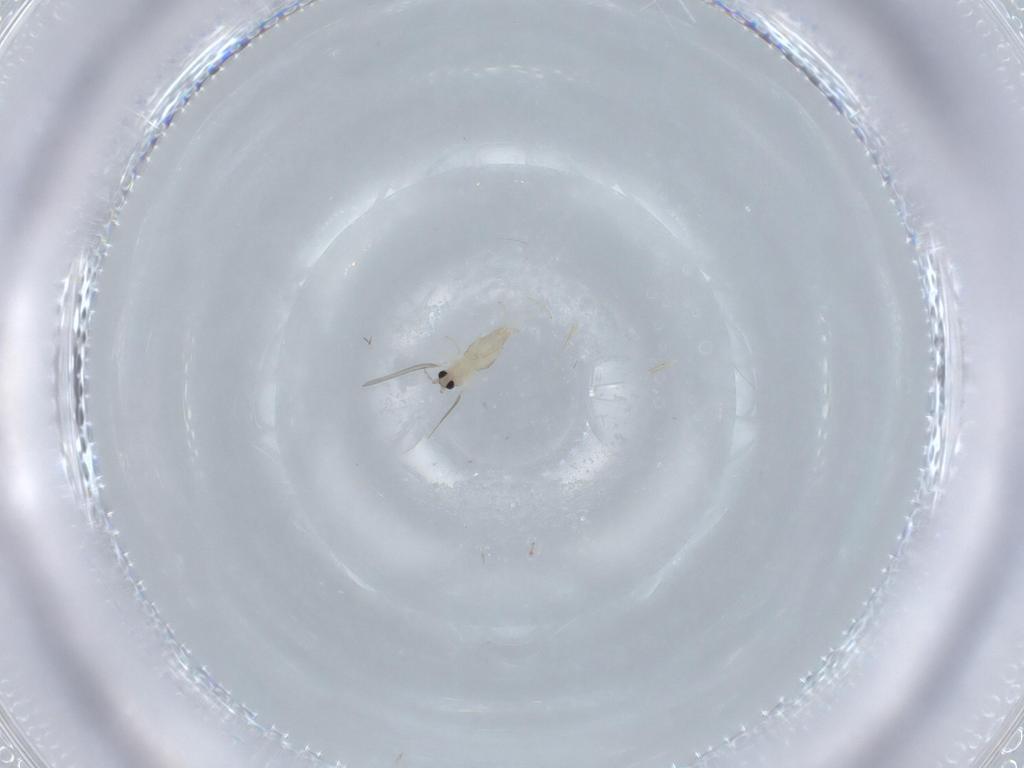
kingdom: Animalia
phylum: Arthropoda
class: Insecta
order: Diptera
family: Cecidomyiidae
